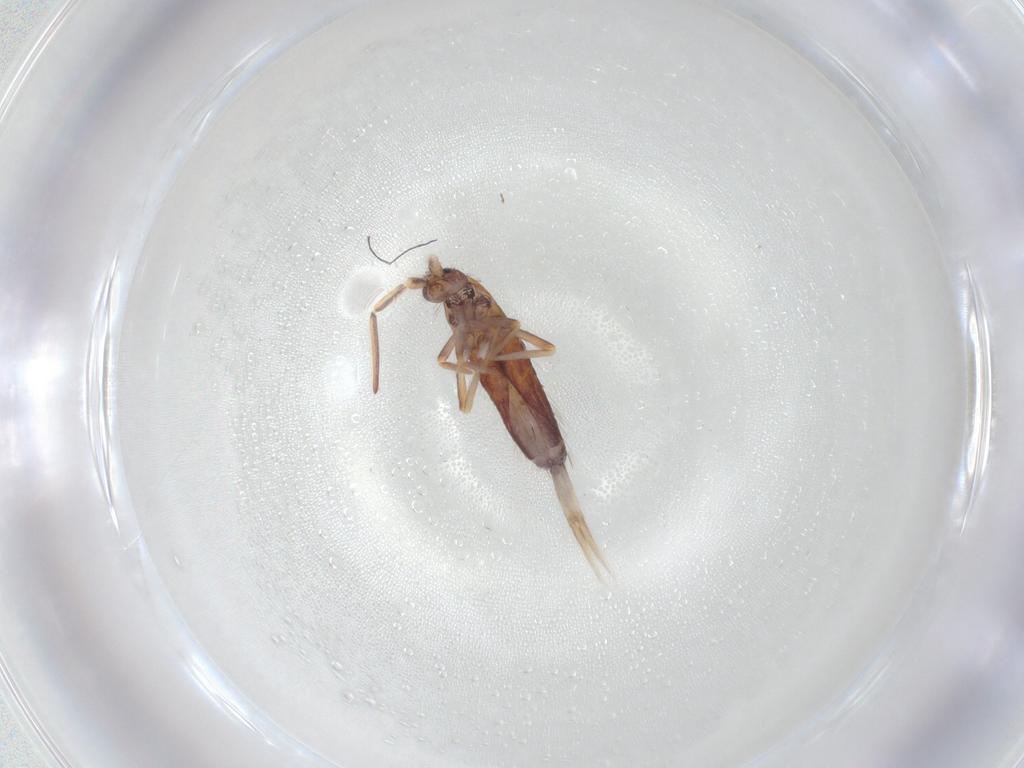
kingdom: Animalia
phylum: Arthropoda
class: Collembola
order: Entomobryomorpha
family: Entomobryidae
